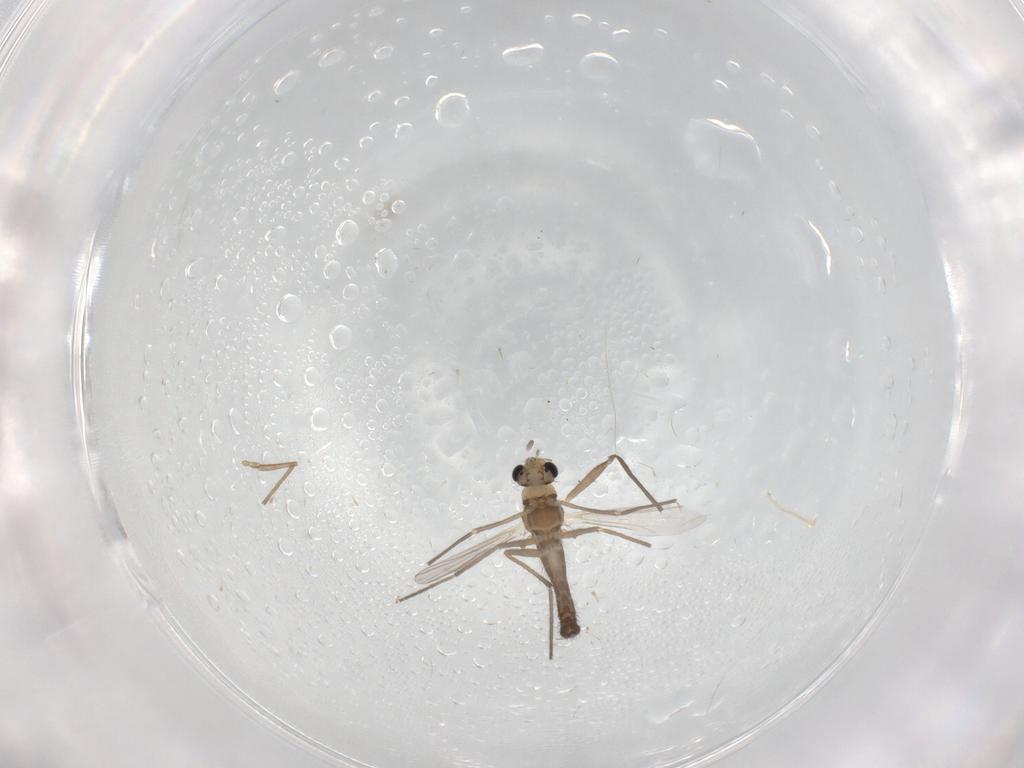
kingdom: Animalia
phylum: Arthropoda
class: Insecta
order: Diptera
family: Chironomidae
